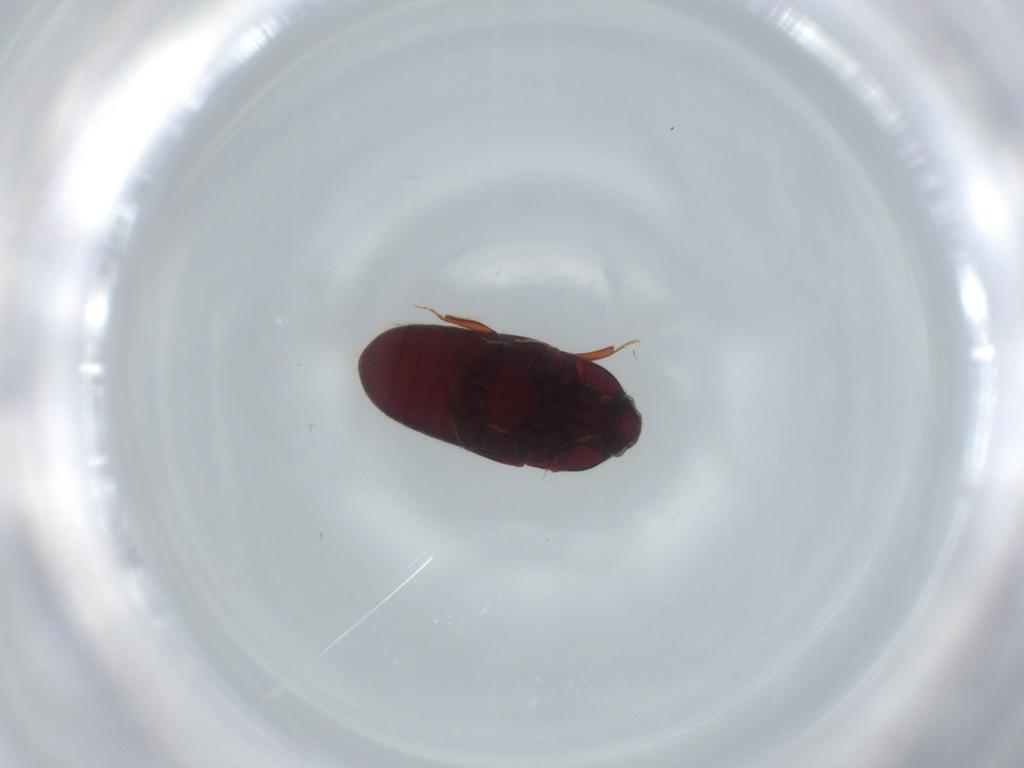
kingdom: Animalia
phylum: Arthropoda
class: Insecta
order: Coleoptera
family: Throscidae
